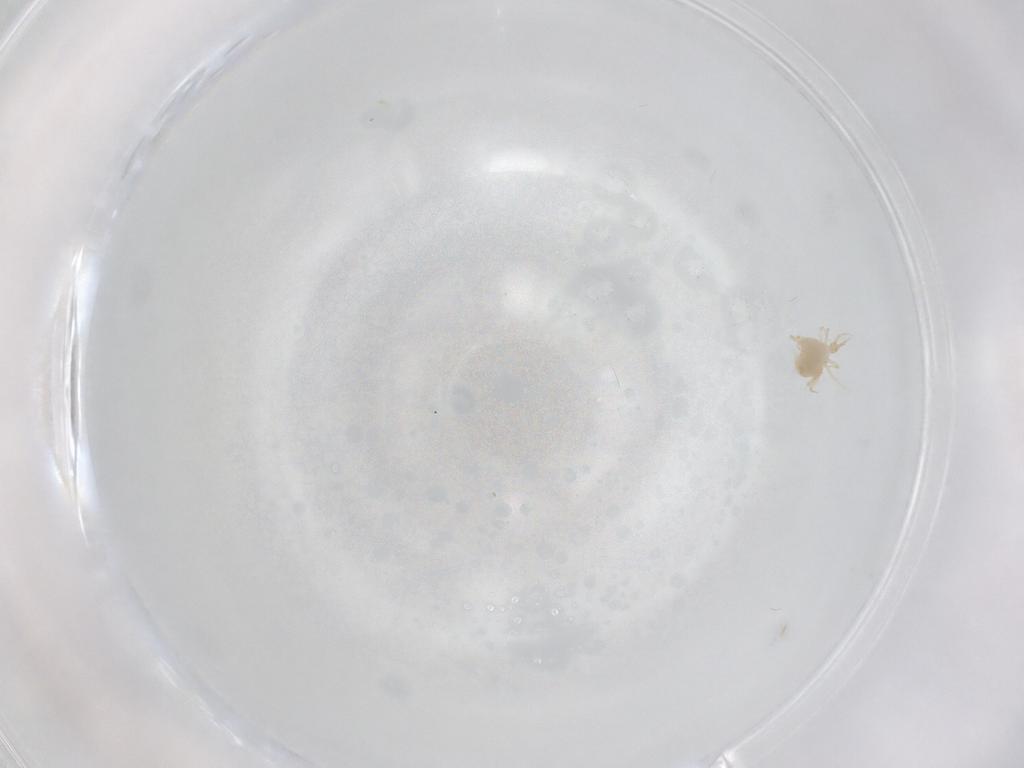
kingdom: Animalia
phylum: Arthropoda
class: Arachnida
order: Trombidiformes
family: Cunaxidae
